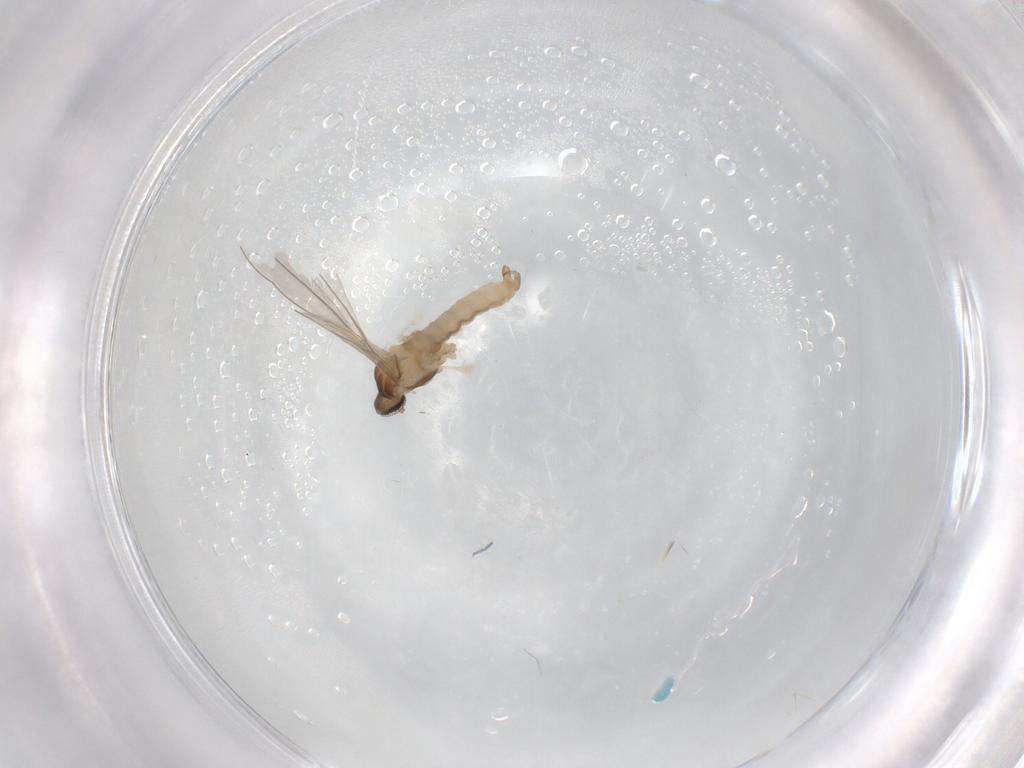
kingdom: Animalia
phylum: Arthropoda
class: Insecta
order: Diptera
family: Cecidomyiidae
